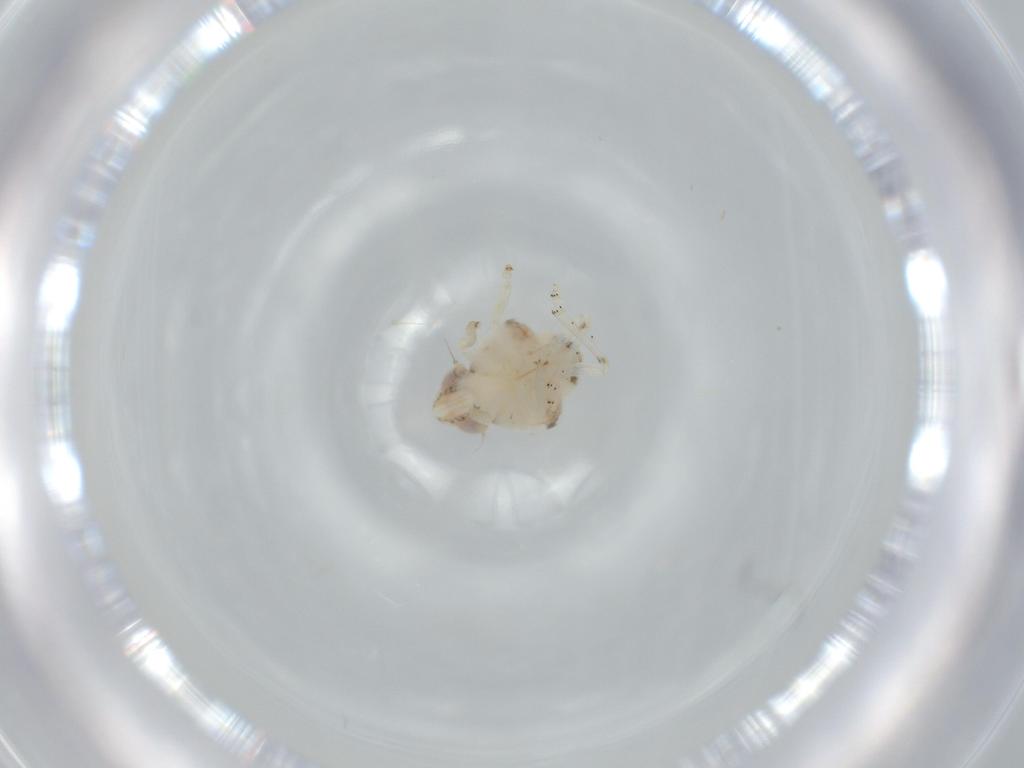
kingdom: Animalia
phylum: Arthropoda
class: Insecta
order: Hemiptera
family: Nogodinidae
